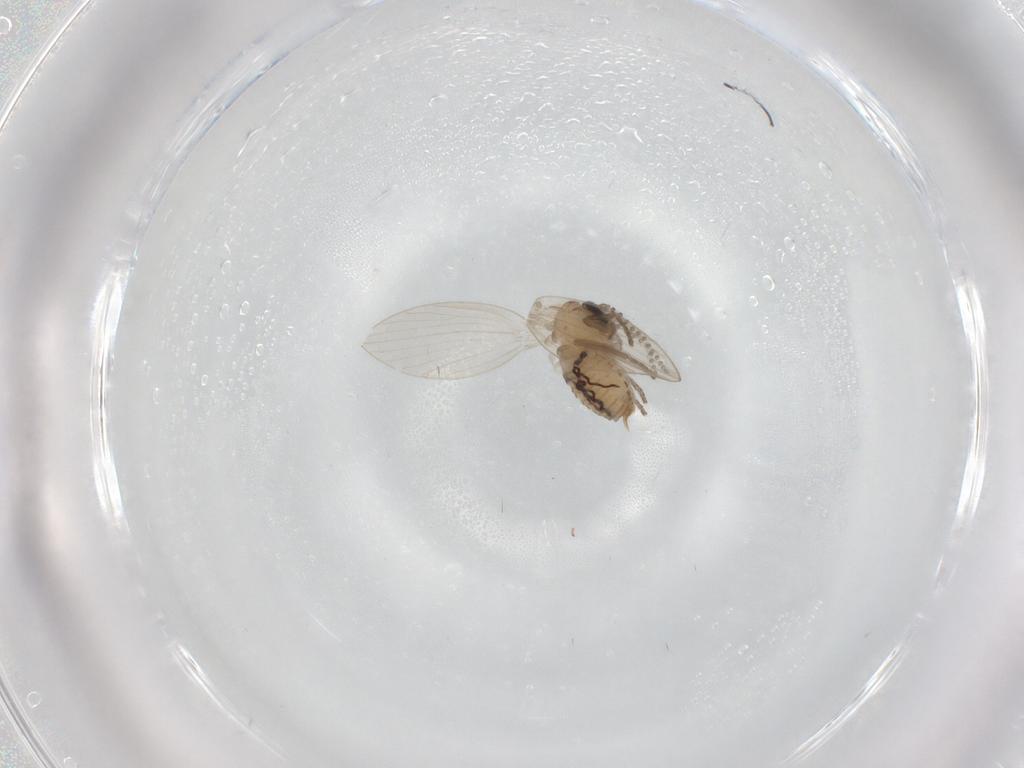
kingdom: Animalia
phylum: Arthropoda
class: Insecta
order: Diptera
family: Psychodidae
